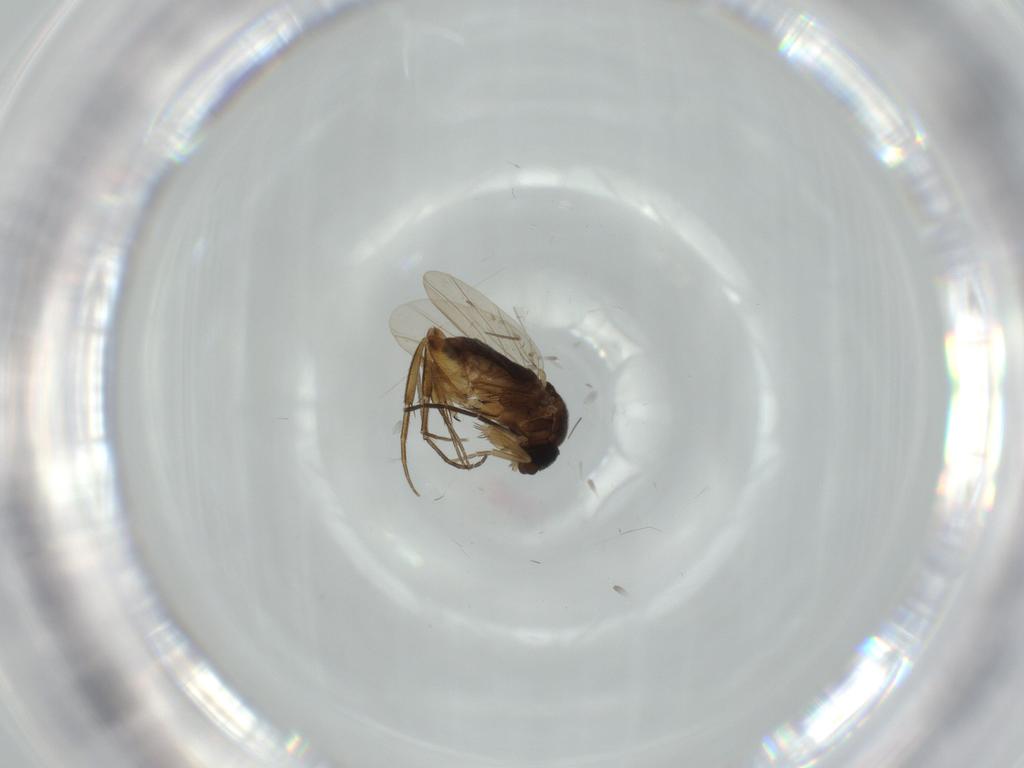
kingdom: Animalia
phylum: Arthropoda
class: Insecta
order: Diptera
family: Phoridae
